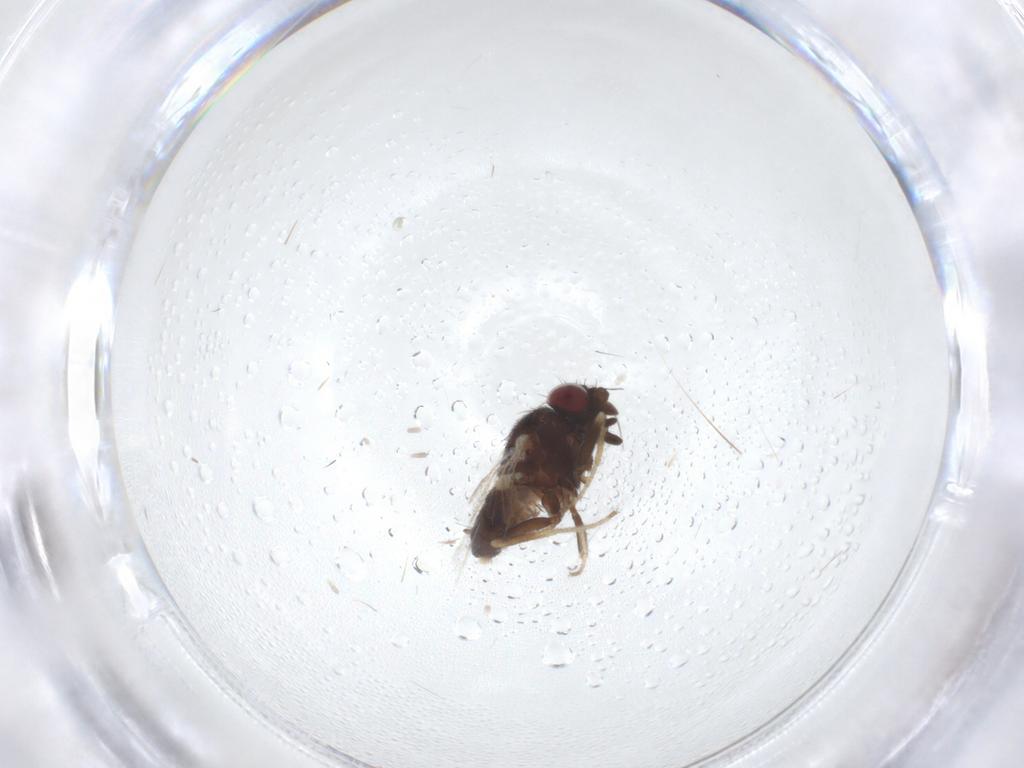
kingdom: Animalia
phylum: Arthropoda
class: Insecta
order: Diptera
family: Milichiidae
